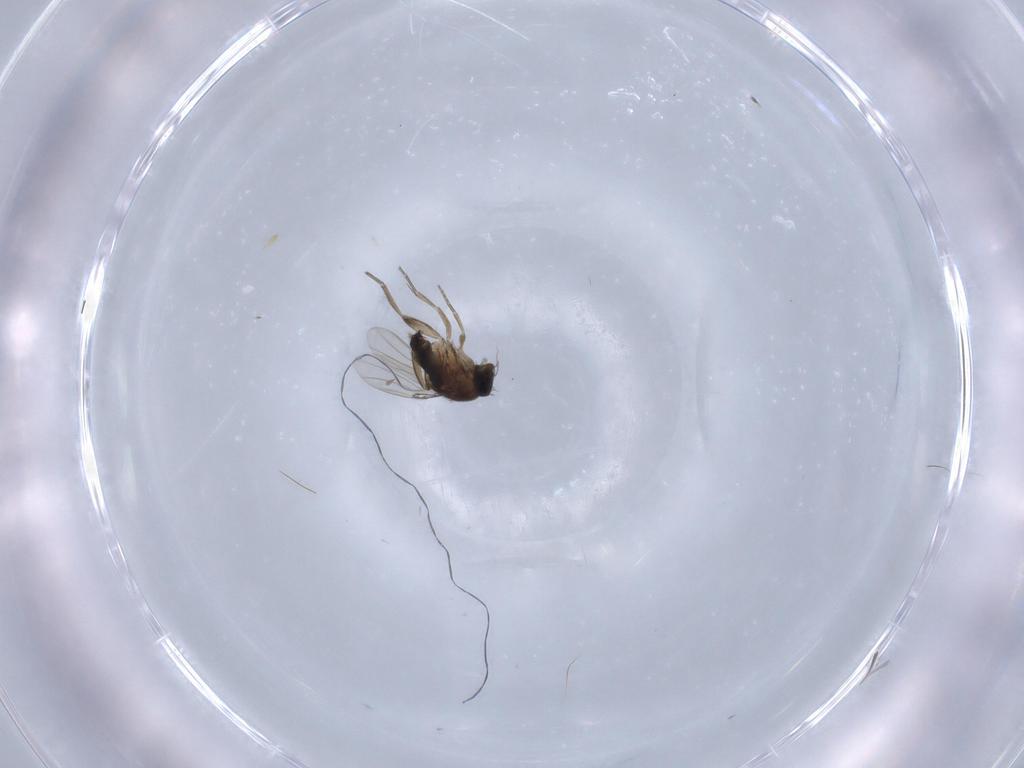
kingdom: Animalia
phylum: Arthropoda
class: Insecta
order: Diptera
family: Phoridae
